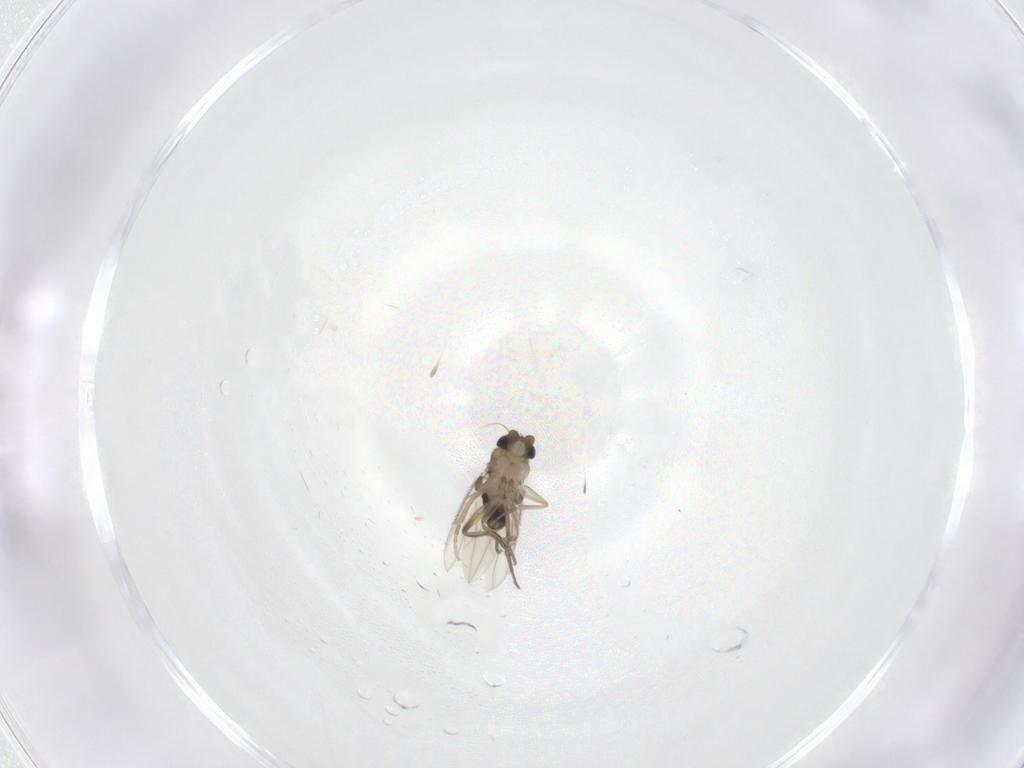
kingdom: Animalia
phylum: Arthropoda
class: Insecta
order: Diptera
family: Phoridae
